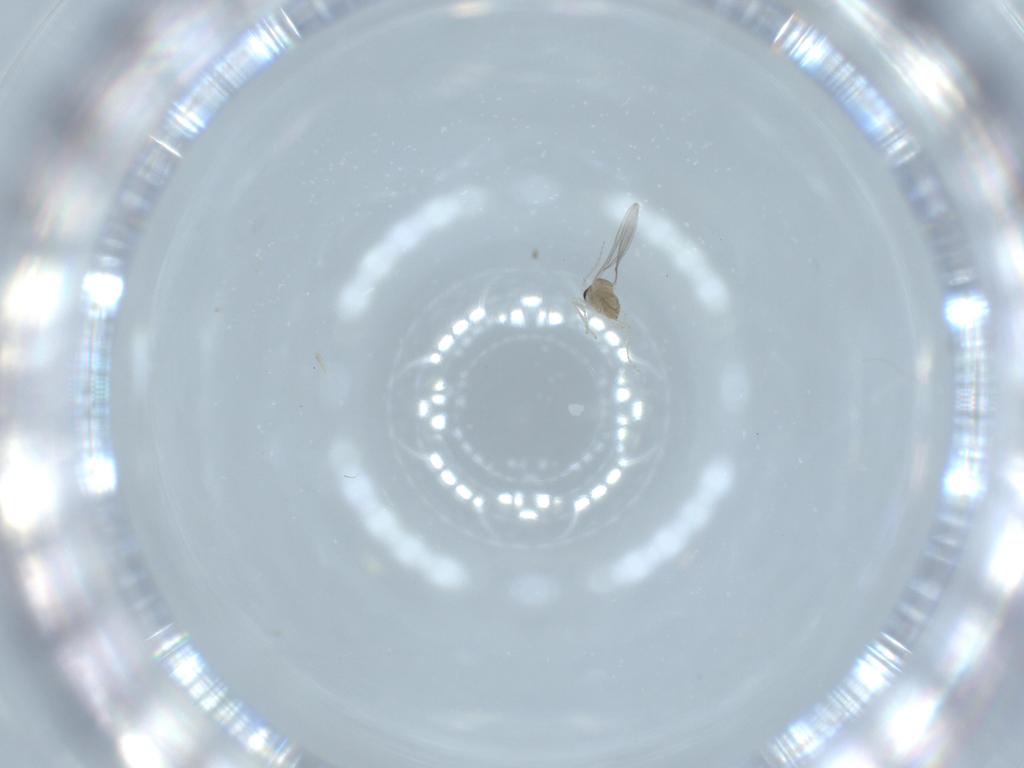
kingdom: Animalia
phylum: Arthropoda
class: Insecta
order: Diptera
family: Cecidomyiidae
